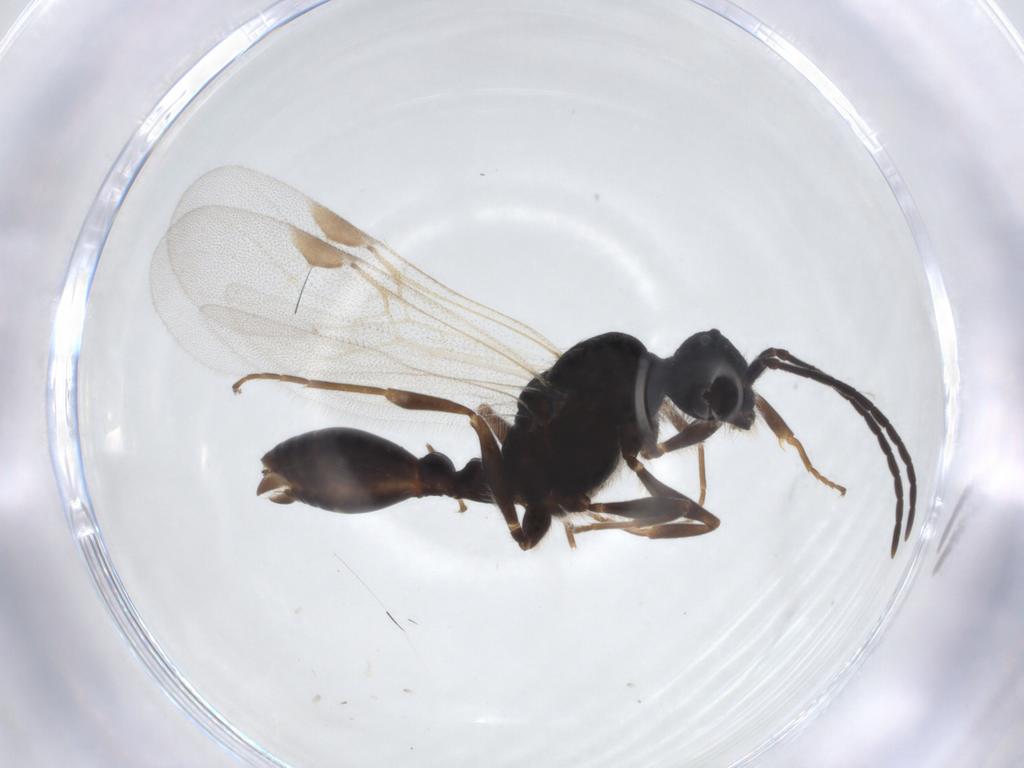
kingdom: Animalia
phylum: Arthropoda
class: Insecta
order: Hymenoptera
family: Formicidae
